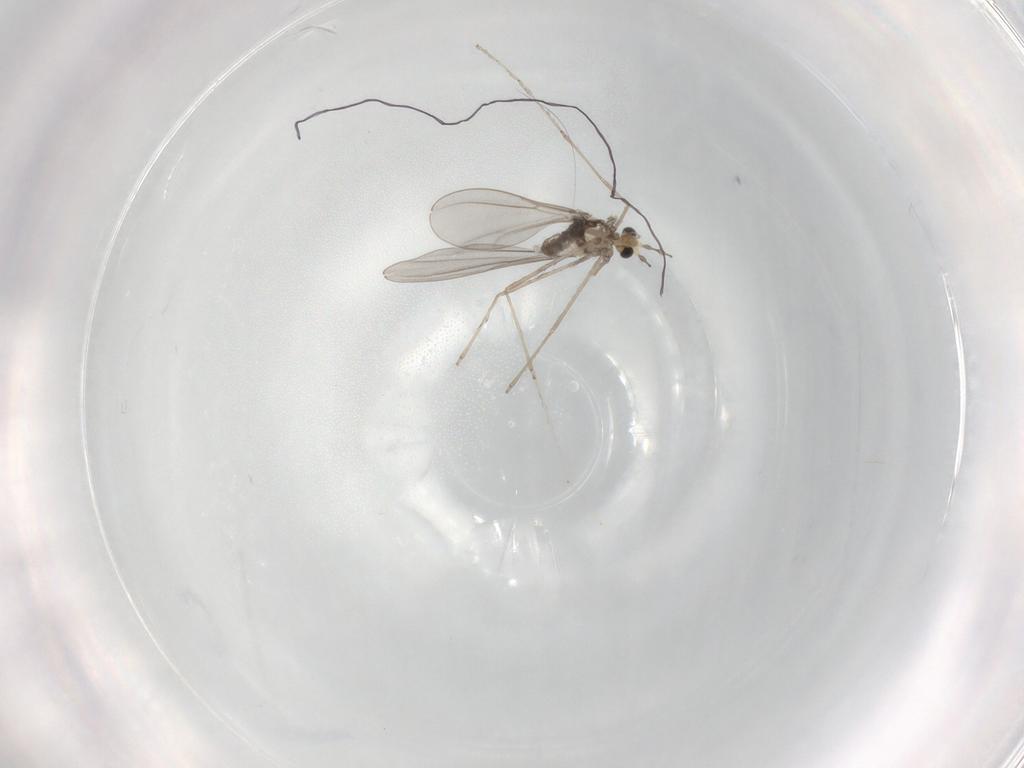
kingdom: Animalia
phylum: Arthropoda
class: Insecta
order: Diptera
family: Cecidomyiidae
